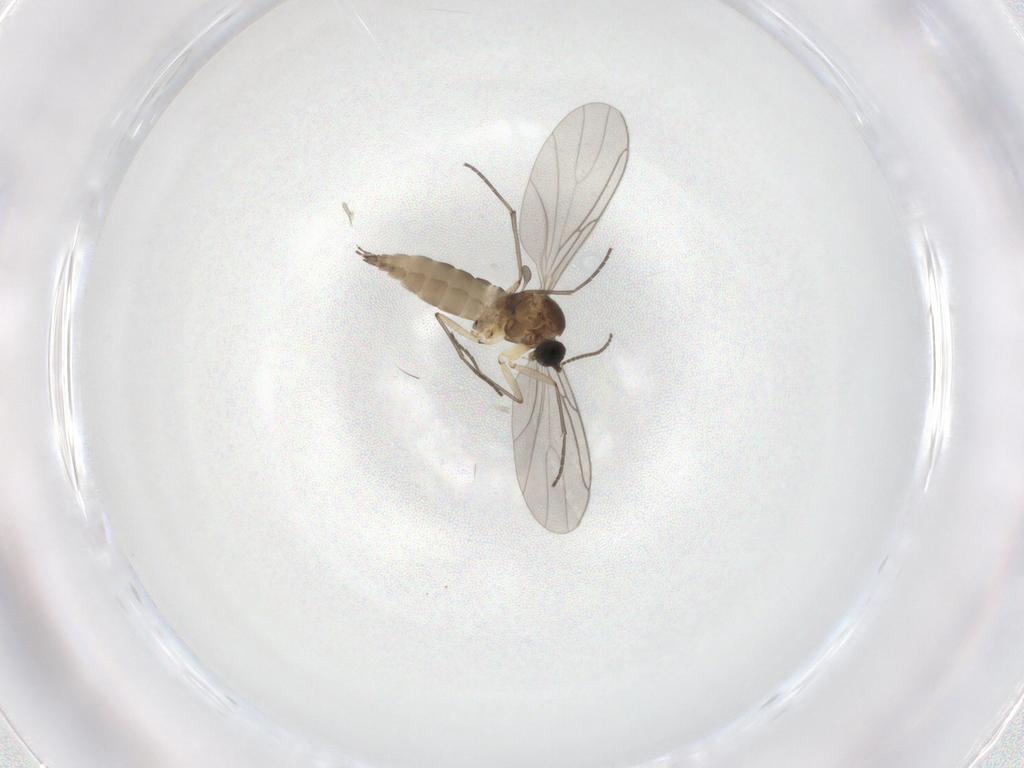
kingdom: Animalia
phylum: Arthropoda
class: Insecta
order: Diptera
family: Sciaridae
